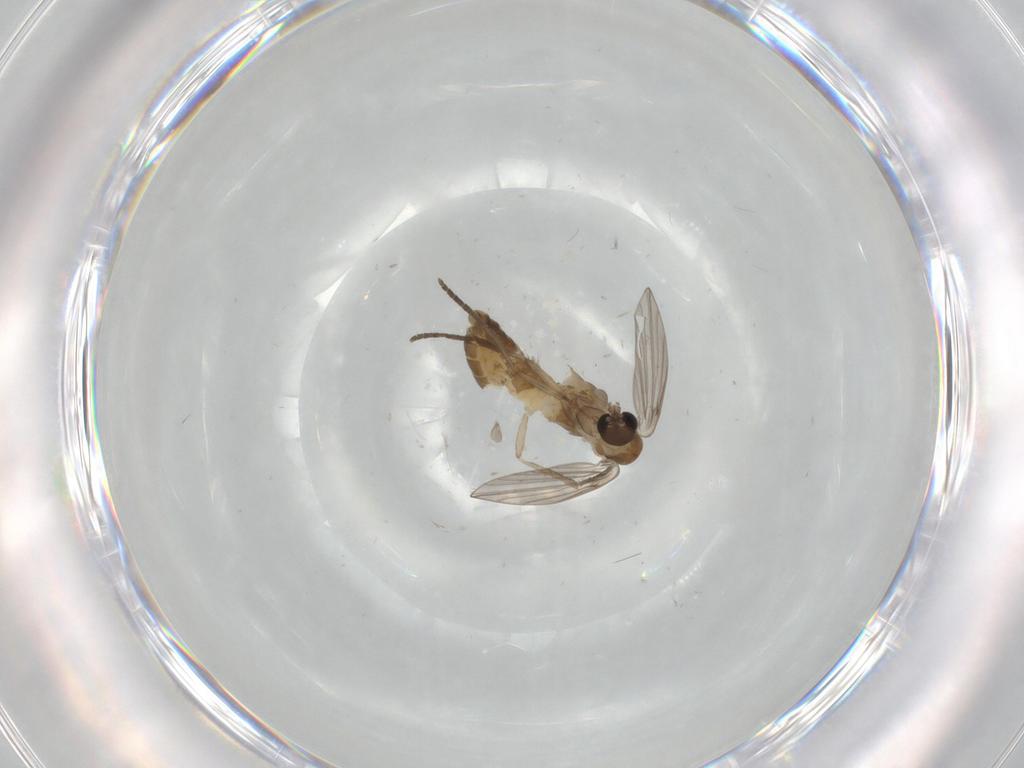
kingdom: Animalia
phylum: Arthropoda
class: Insecta
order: Diptera
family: Psychodidae
